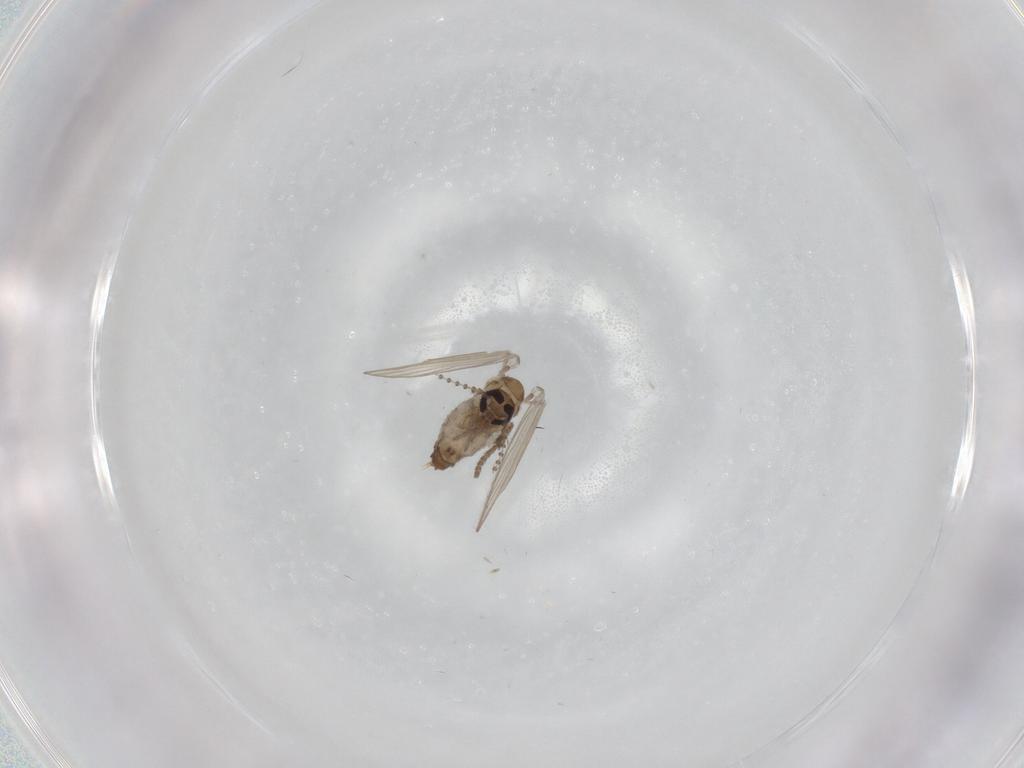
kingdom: Animalia
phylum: Arthropoda
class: Insecta
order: Diptera
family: Psychodidae
